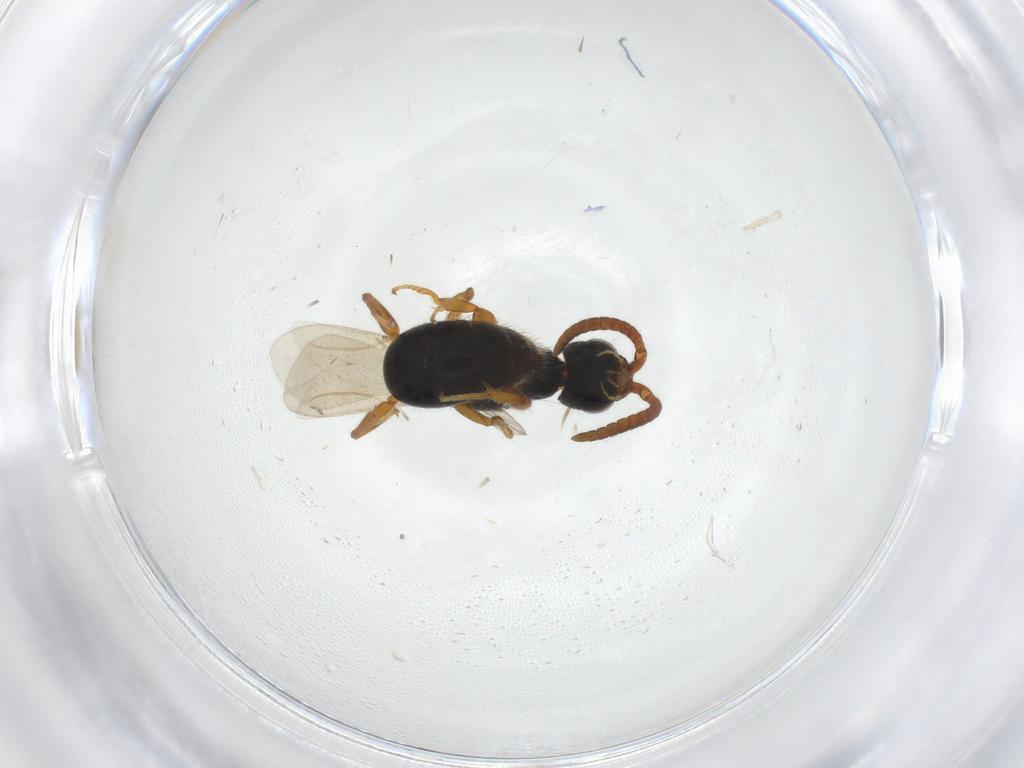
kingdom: Animalia
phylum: Arthropoda
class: Insecta
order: Hymenoptera
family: Bethylidae
